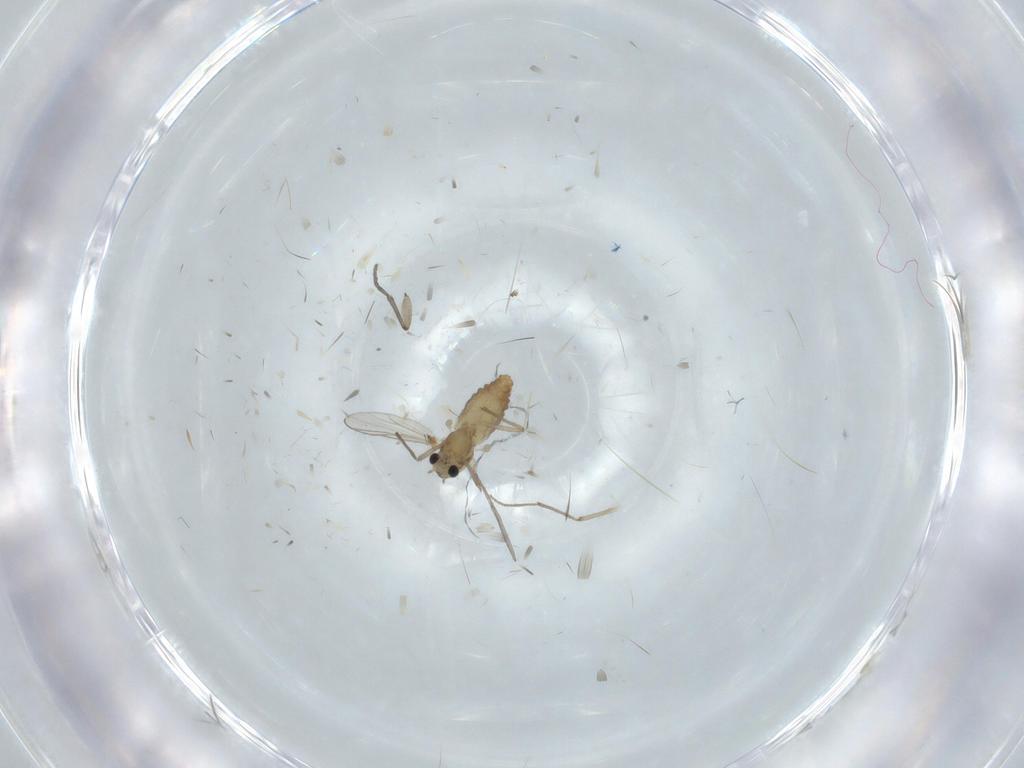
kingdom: Animalia
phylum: Arthropoda
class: Insecta
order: Diptera
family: Chironomidae
